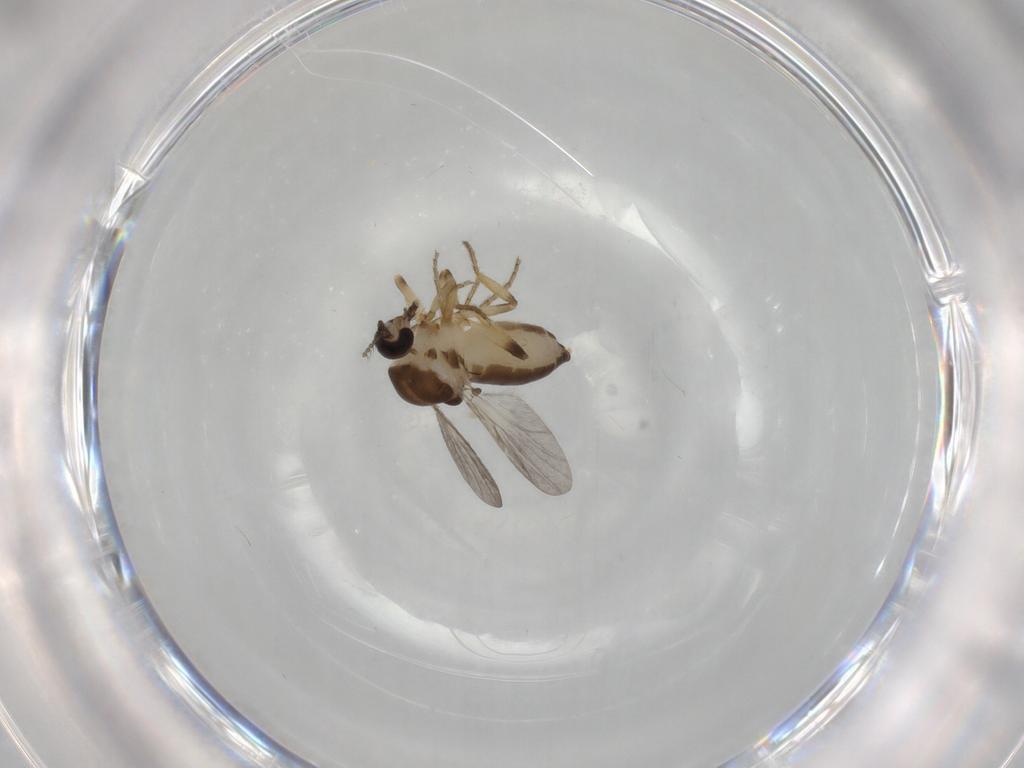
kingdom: Animalia
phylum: Arthropoda
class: Insecta
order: Diptera
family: Ceratopogonidae
